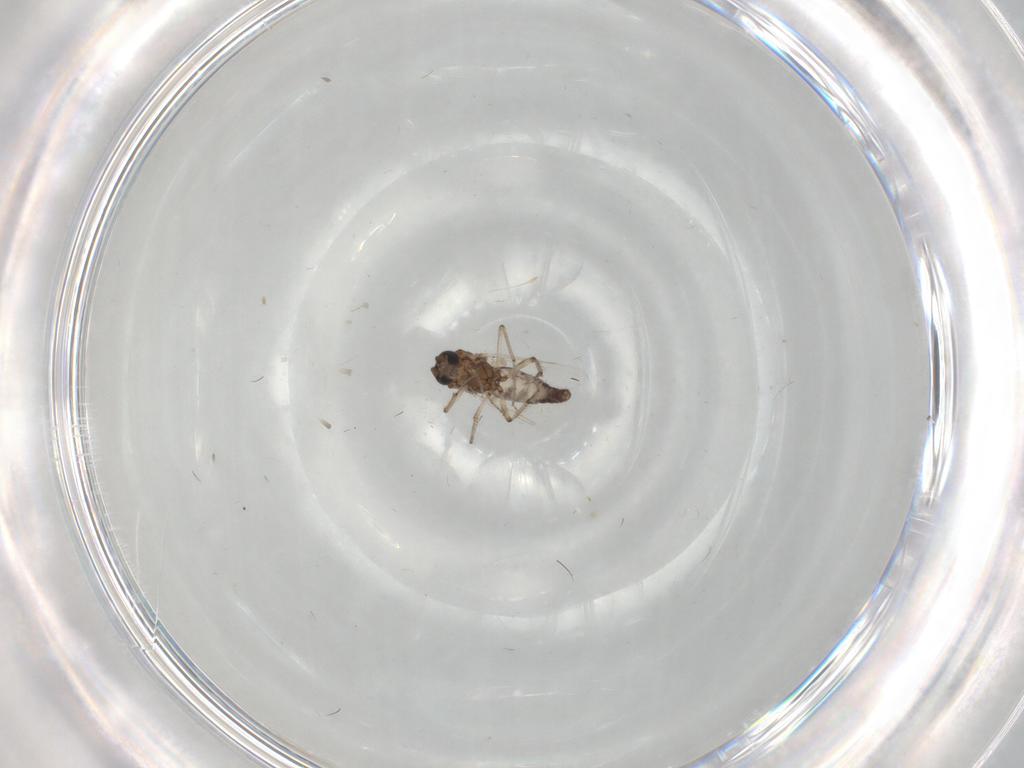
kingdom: Animalia
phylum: Arthropoda
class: Insecta
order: Diptera
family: Ceratopogonidae
